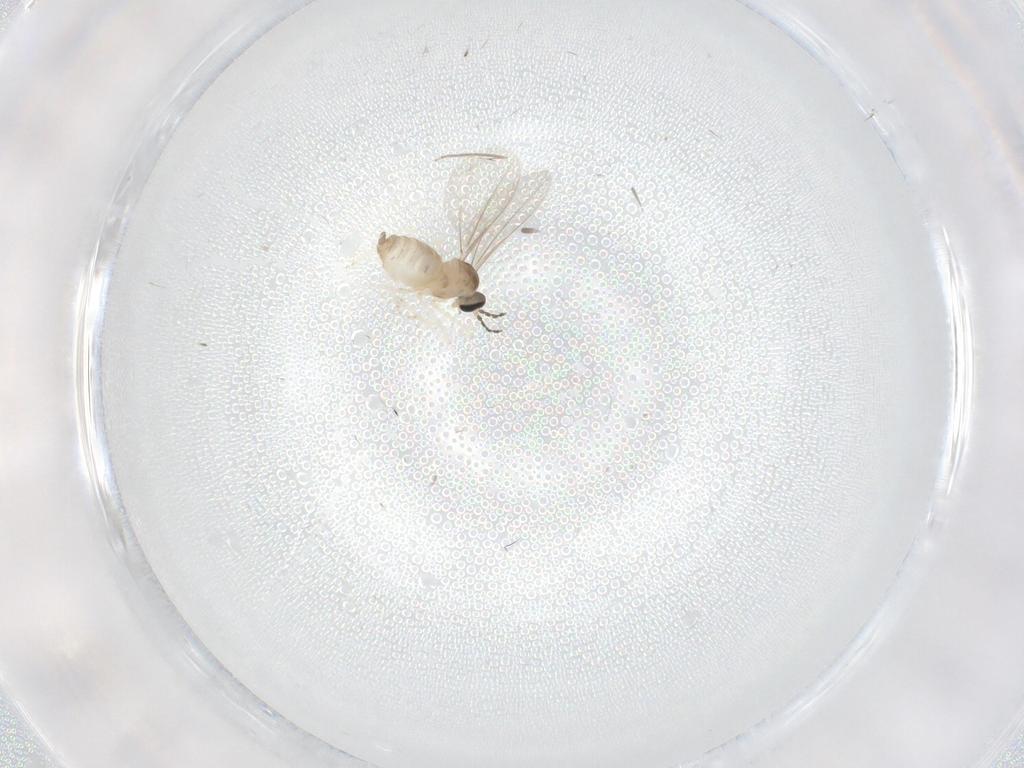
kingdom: Animalia
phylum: Arthropoda
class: Insecta
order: Diptera
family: Cecidomyiidae
